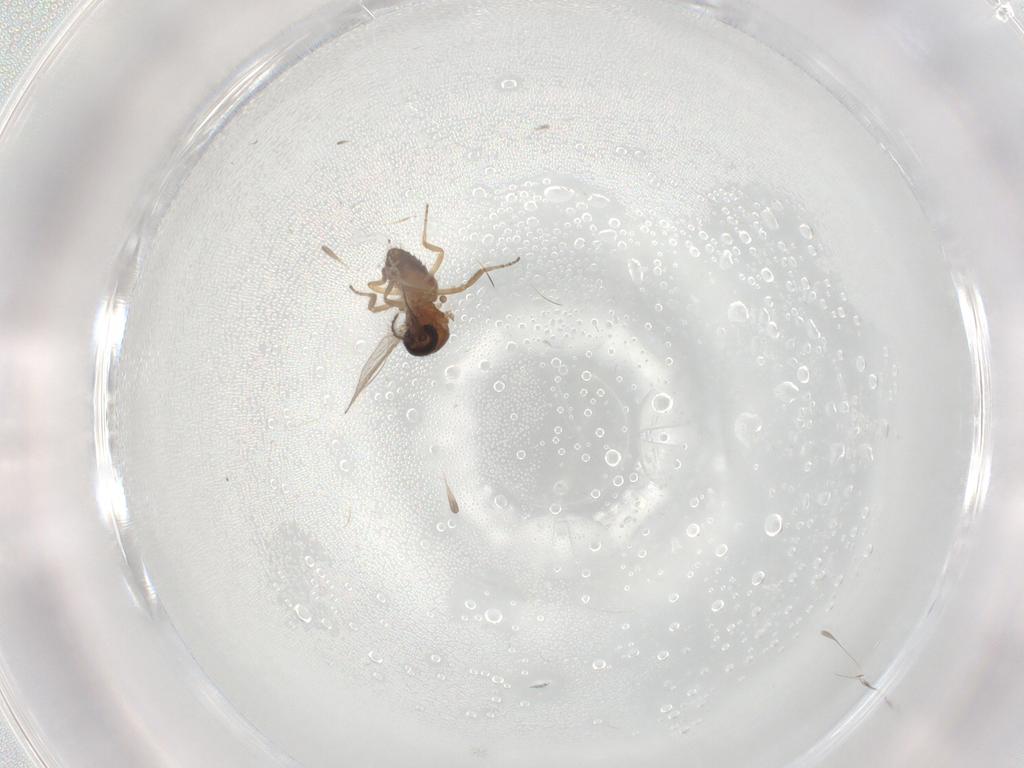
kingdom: Animalia
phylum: Arthropoda
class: Insecta
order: Diptera
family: Ceratopogonidae
